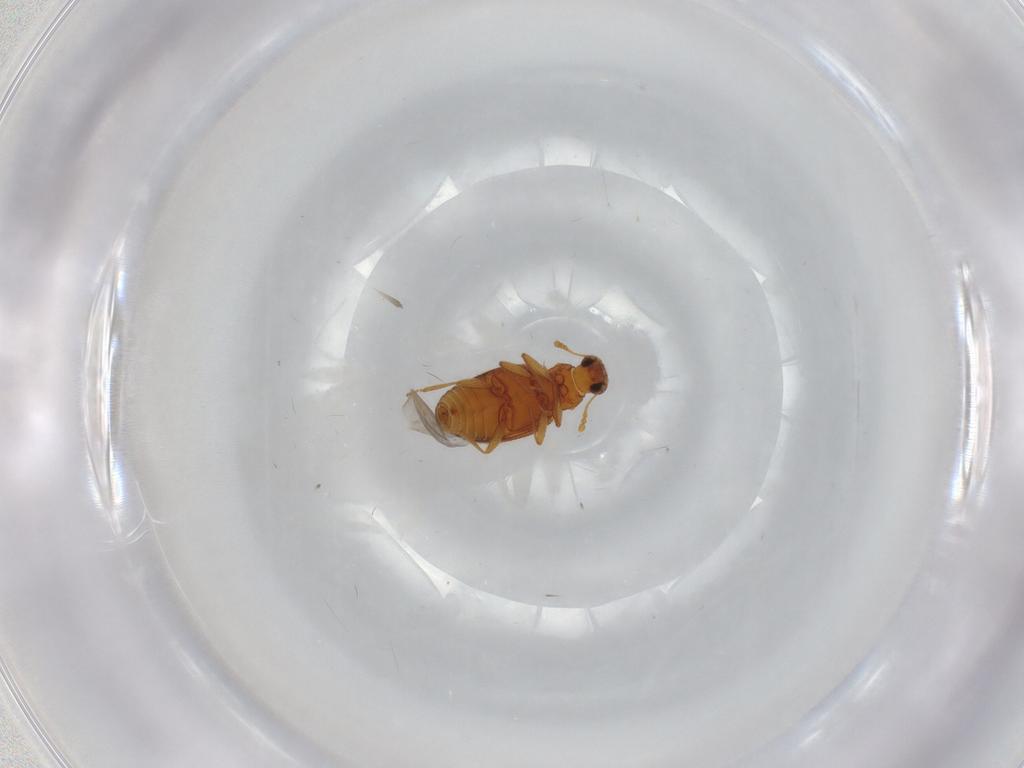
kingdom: Animalia
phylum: Arthropoda
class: Insecta
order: Coleoptera
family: Latridiidae
